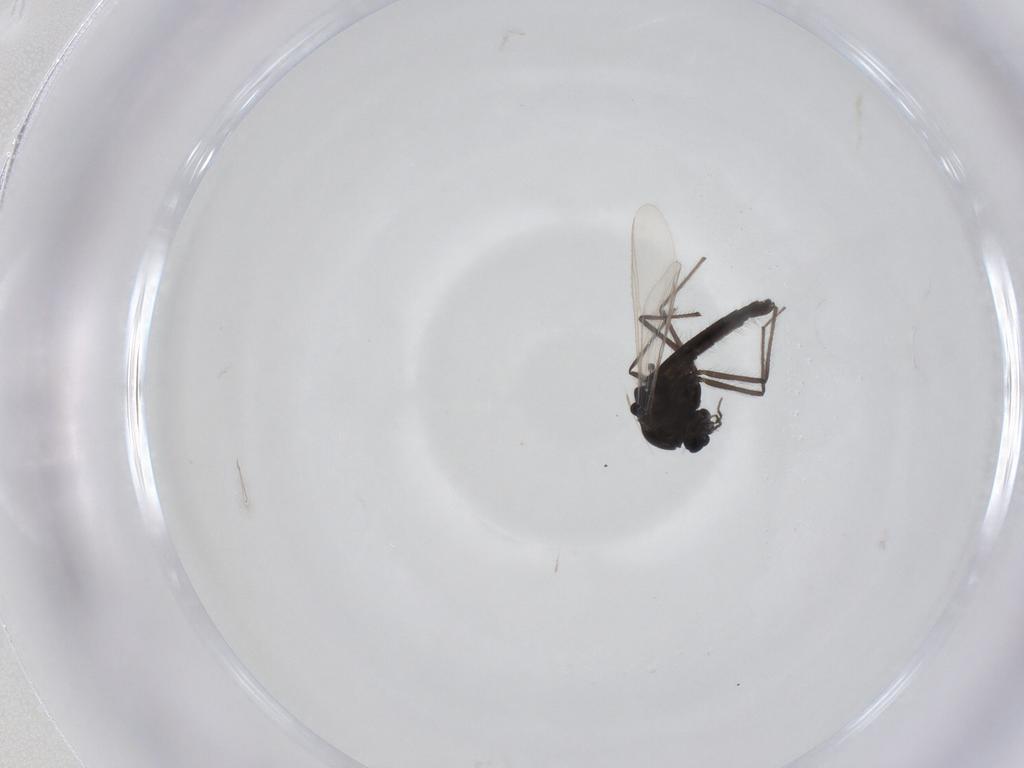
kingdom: Animalia
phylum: Arthropoda
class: Insecta
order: Diptera
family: Chironomidae
